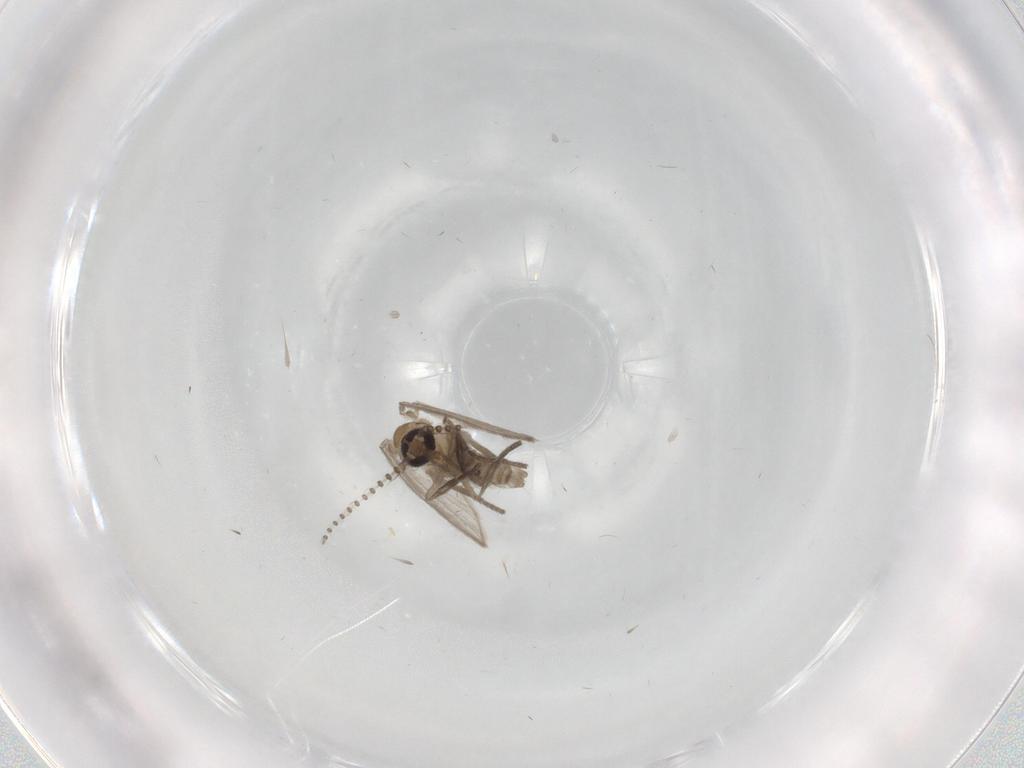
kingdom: Animalia
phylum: Arthropoda
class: Insecta
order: Diptera
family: Psychodidae
